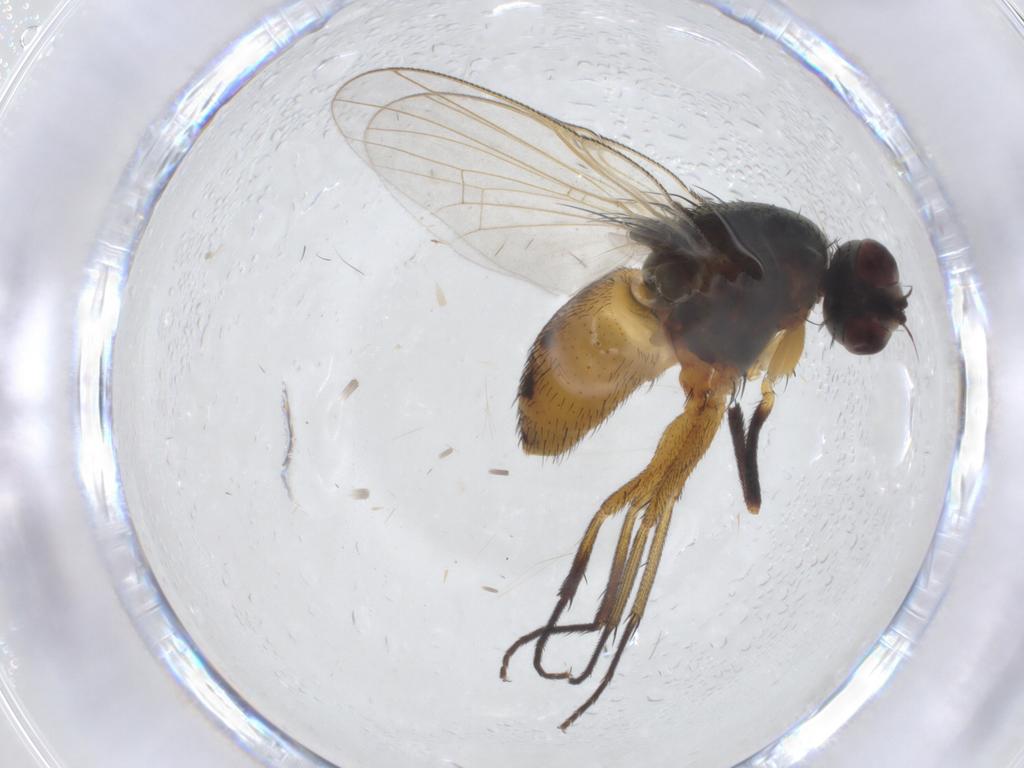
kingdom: Animalia
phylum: Arthropoda
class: Insecta
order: Diptera
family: Muscidae
